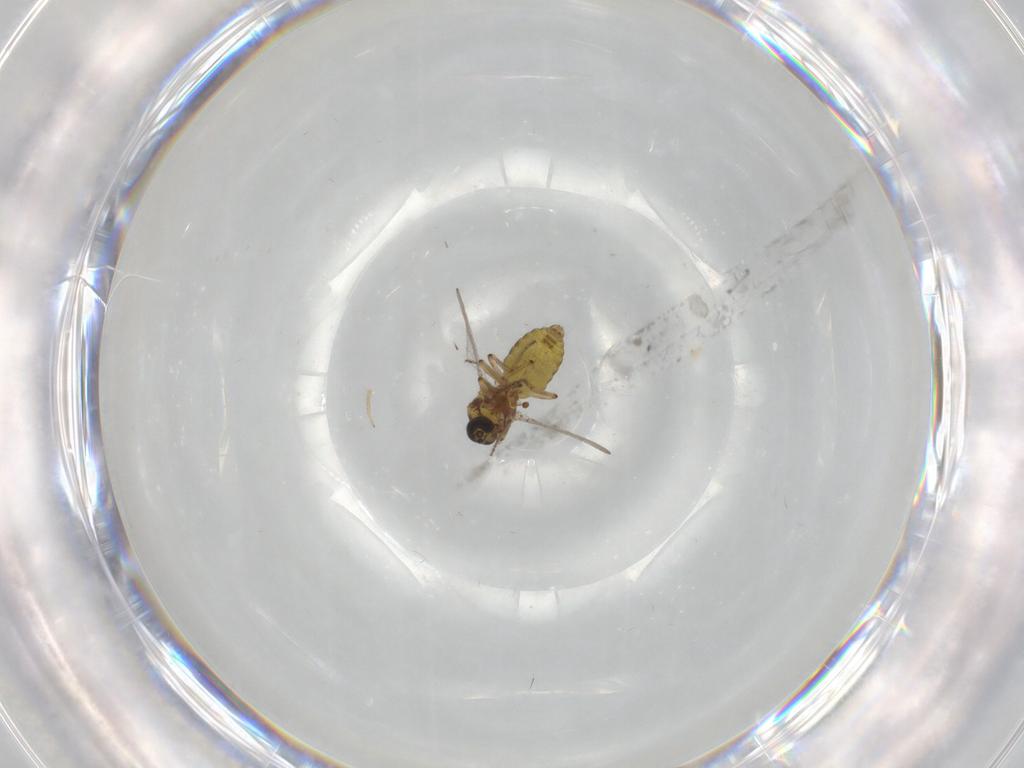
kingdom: Animalia
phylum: Arthropoda
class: Insecta
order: Diptera
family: Ceratopogonidae
